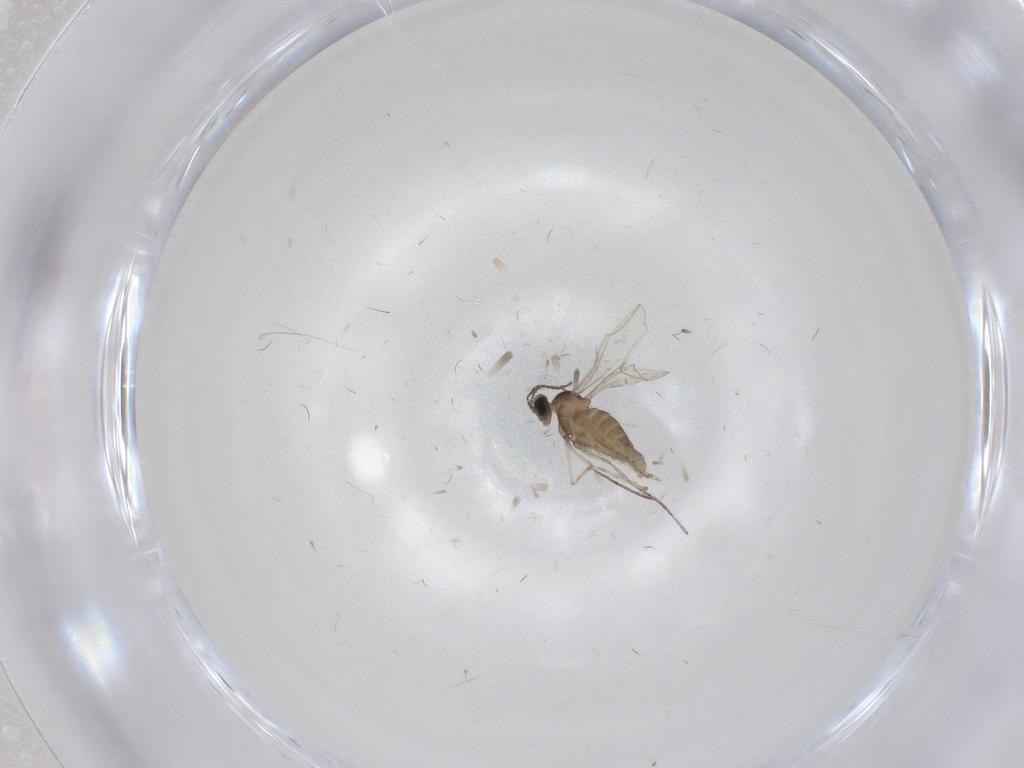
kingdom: Animalia
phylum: Arthropoda
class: Insecta
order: Diptera
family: Cecidomyiidae
